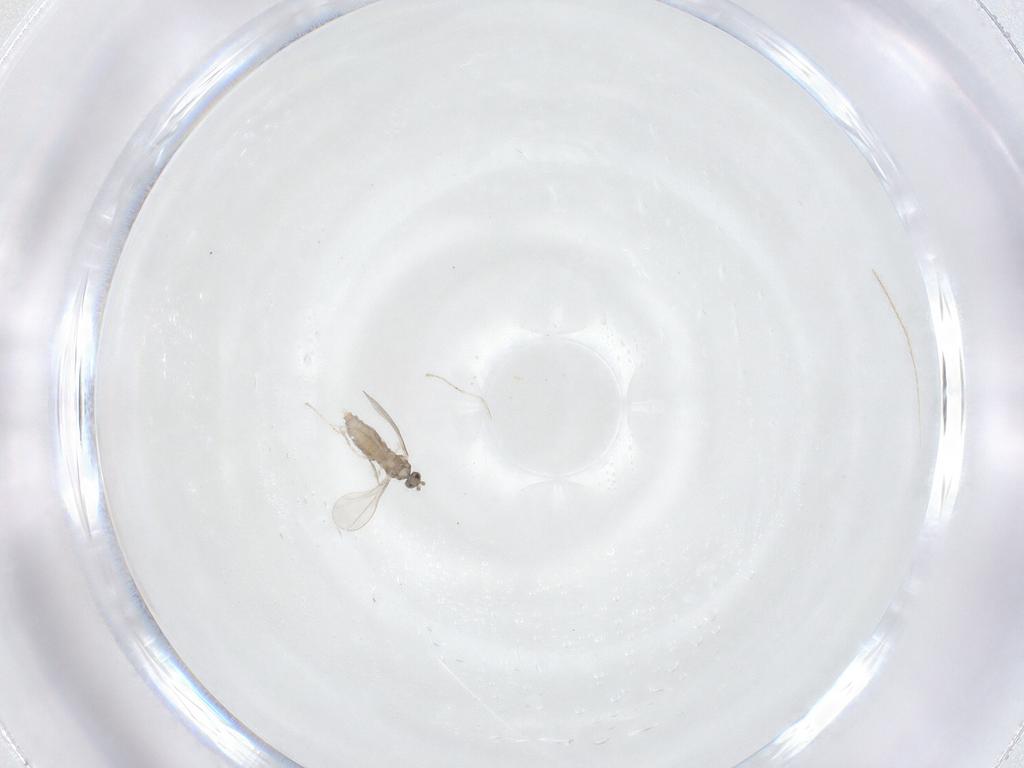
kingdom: Animalia
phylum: Arthropoda
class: Insecta
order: Diptera
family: Cecidomyiidae
